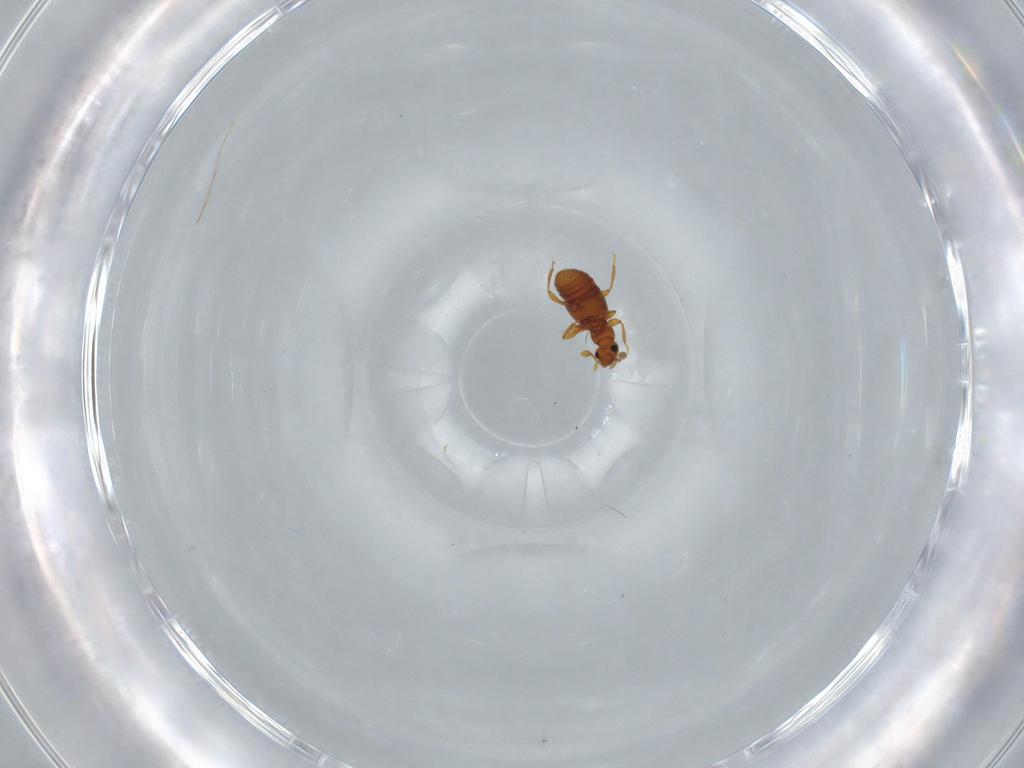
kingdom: Animalia
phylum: Arthropoda
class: Insecta
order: Coleoptera
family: Staphylinidae
